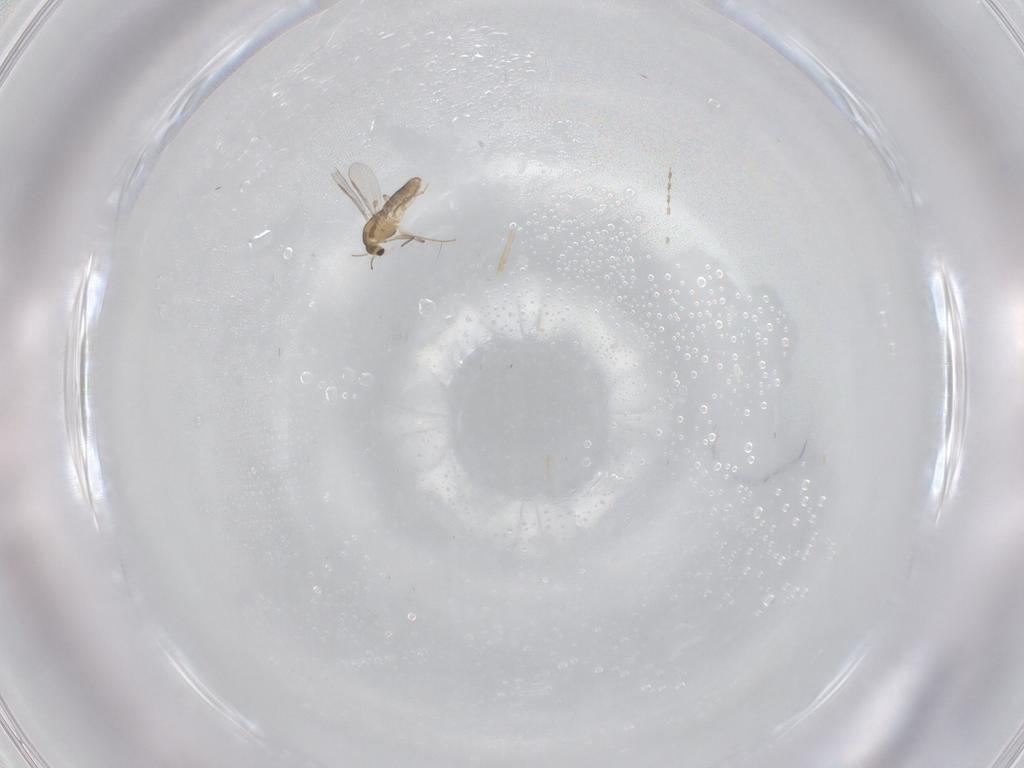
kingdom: Animalia
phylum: Arthropoda
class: Insecta
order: Diptera
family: Chironomidae
